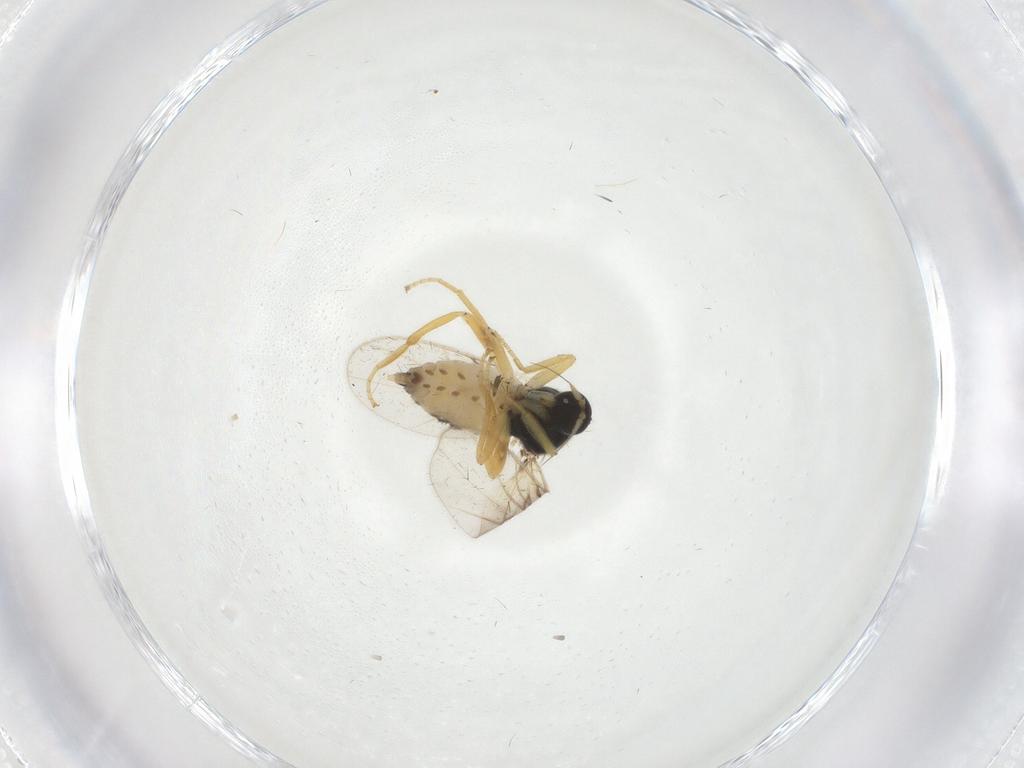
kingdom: Animalia
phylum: Arthropoda
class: Insecta
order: Diptera
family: Hybotidae
